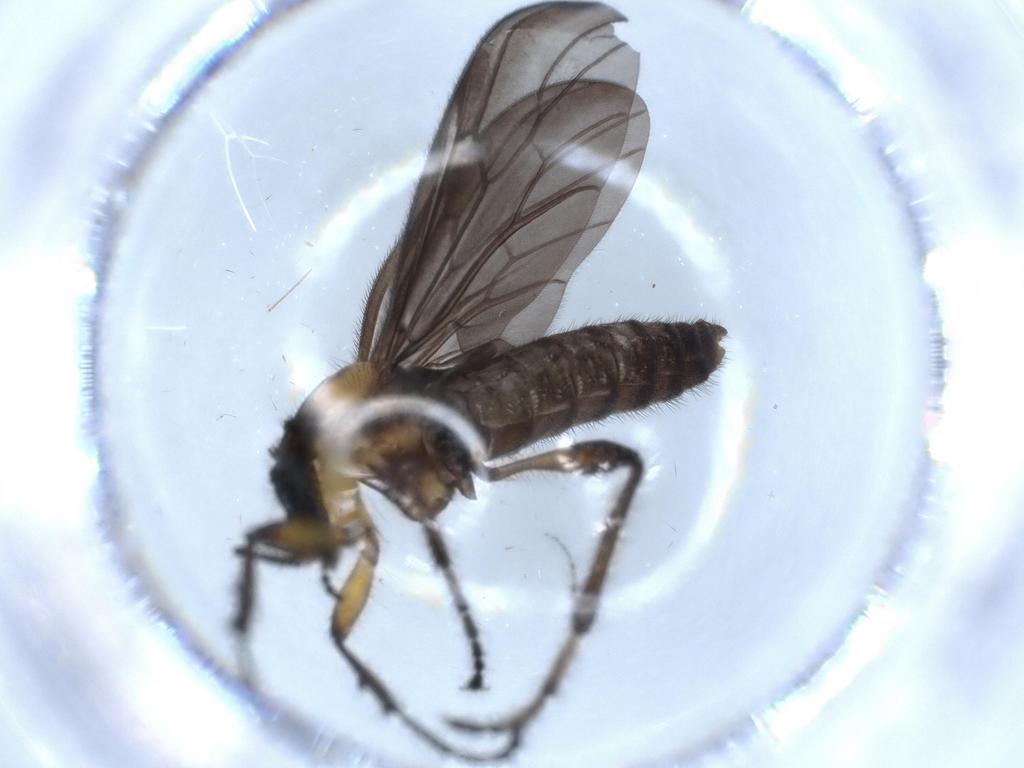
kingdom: Animalia
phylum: Arthropoda
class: Insecta
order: Diptera
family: Bibionidae
